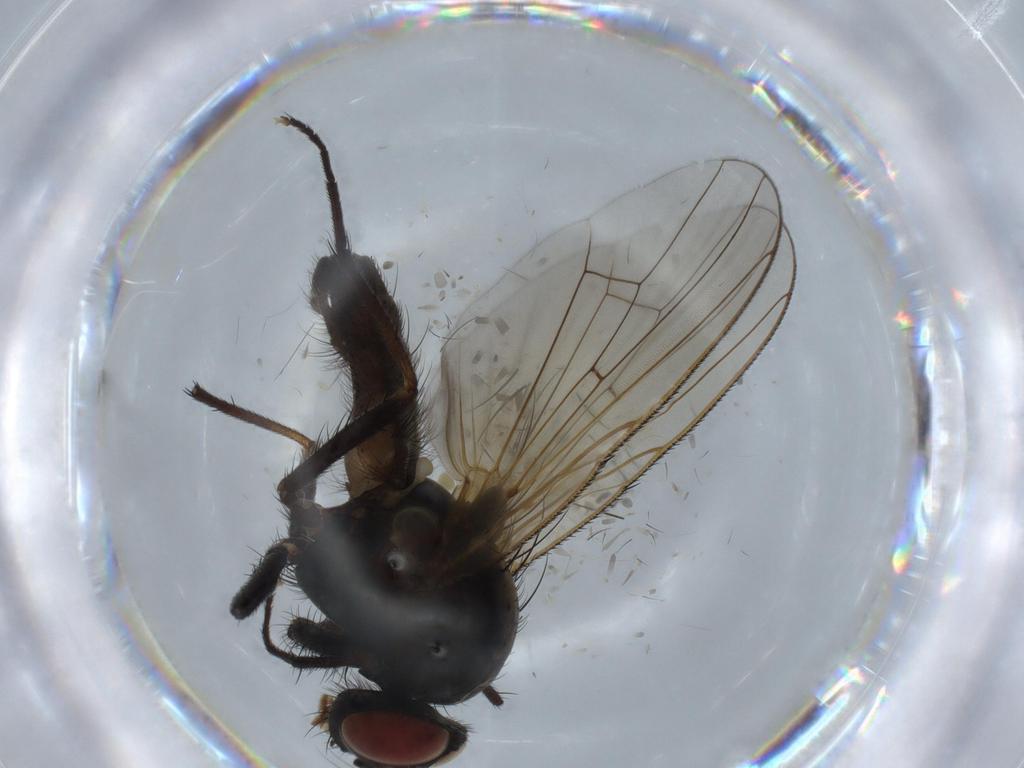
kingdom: Animalia
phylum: Arthropoda
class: Insecta
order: Diptera
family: Anthomyiidae
